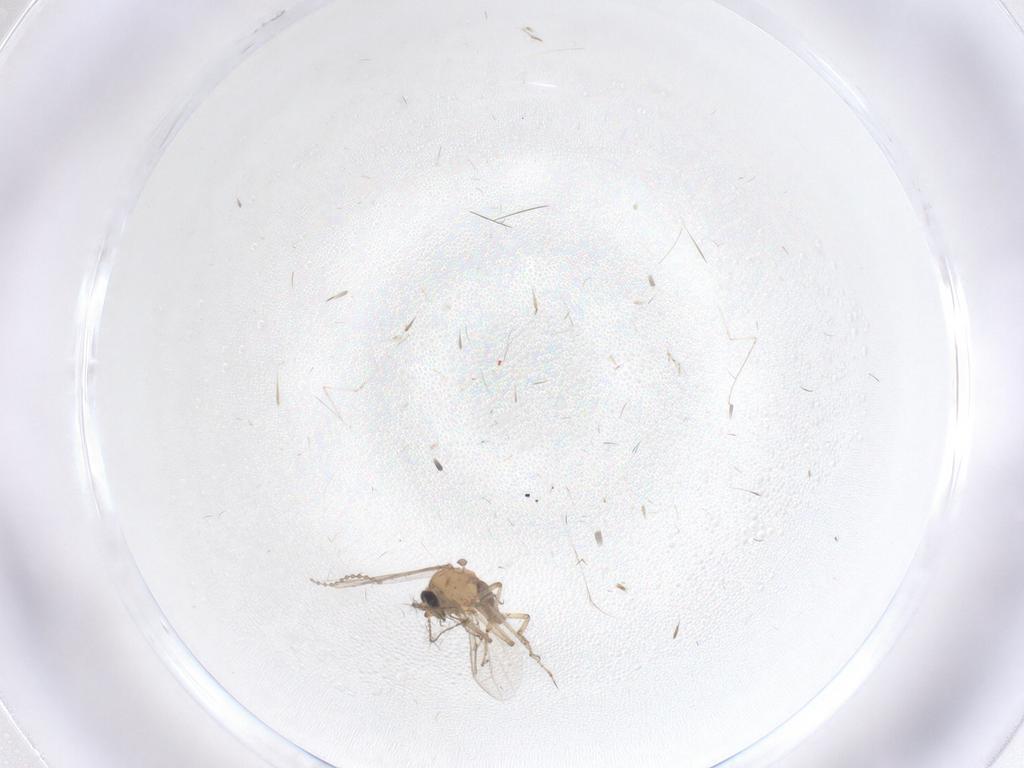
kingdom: Animalia
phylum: Arthropoda
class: Insecta
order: Diptera
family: Cecidomyiidae
